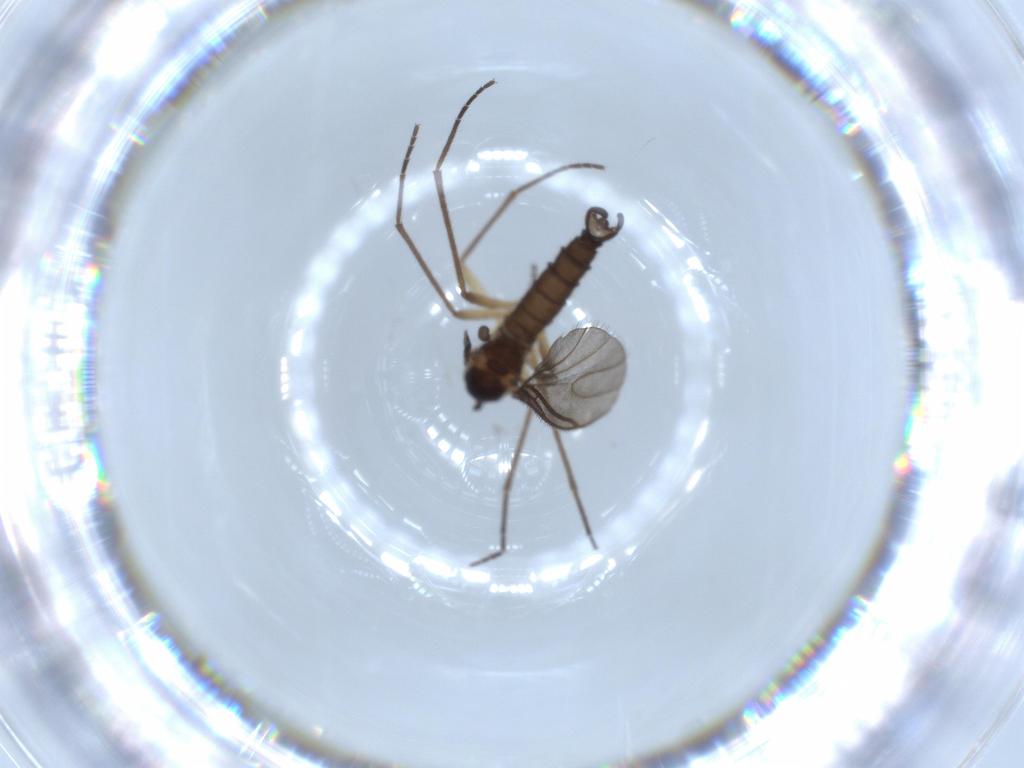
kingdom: Animalia
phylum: Arthropoda
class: Insecta
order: Diptera
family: Sciaridae
